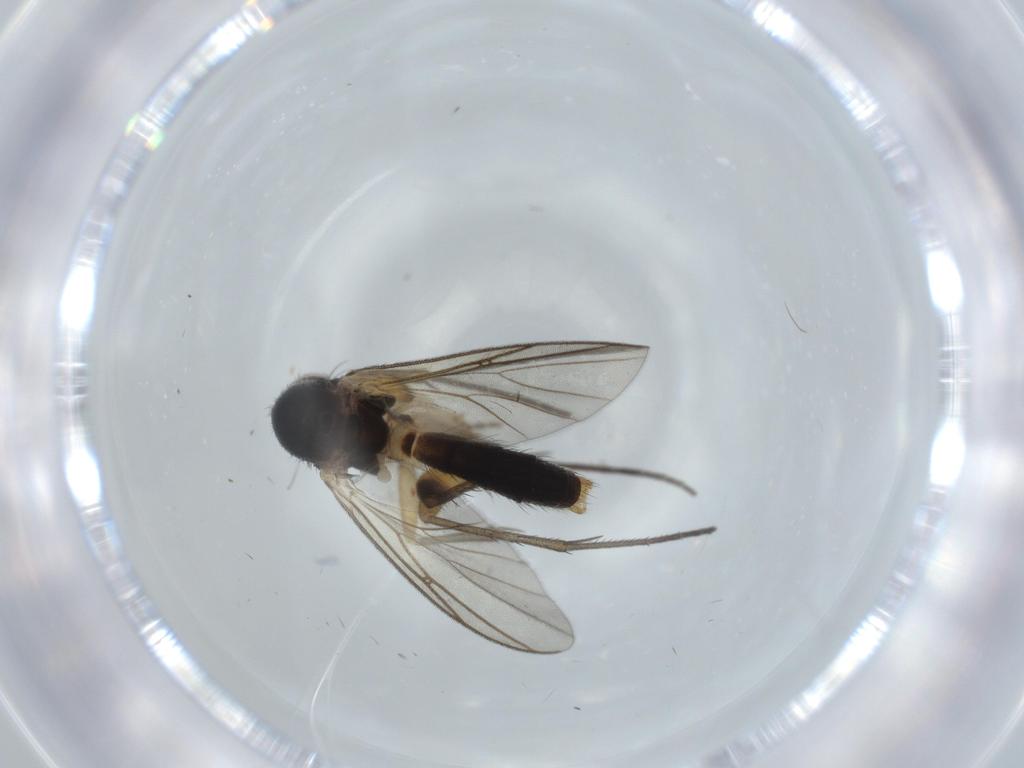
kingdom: Animalia
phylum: Arthropoda
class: Insecta
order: Diptera
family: Mycetophilidae
